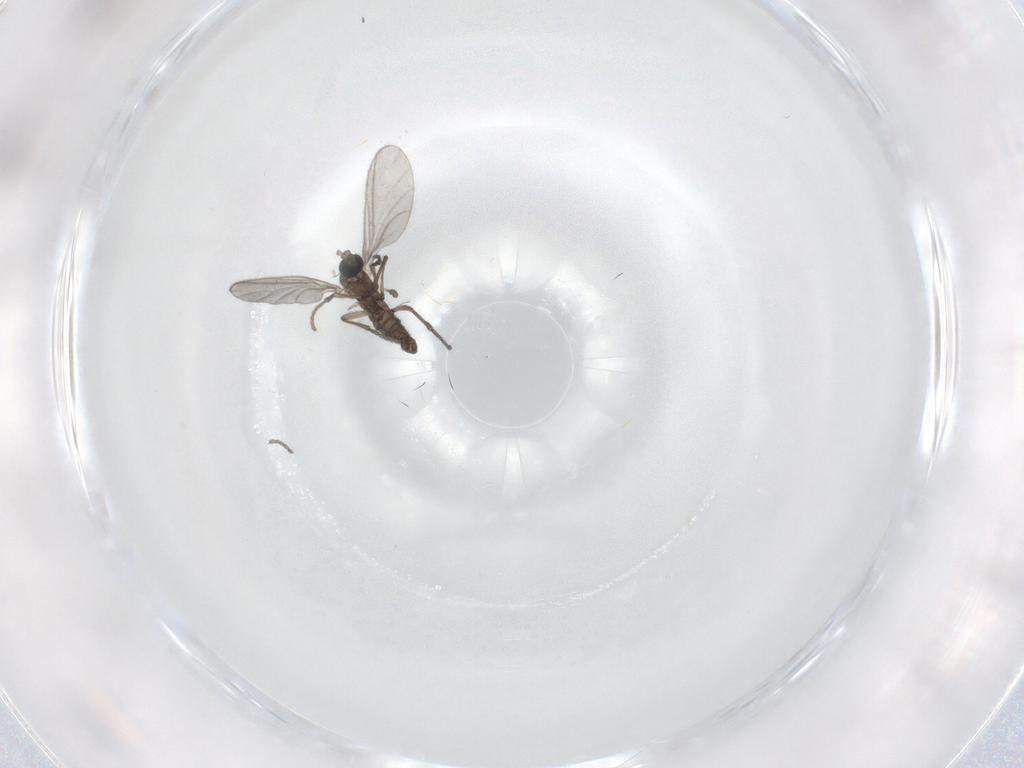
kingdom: Animalia
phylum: Arthropoda
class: Insecta
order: Diptera
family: Sciaridae
